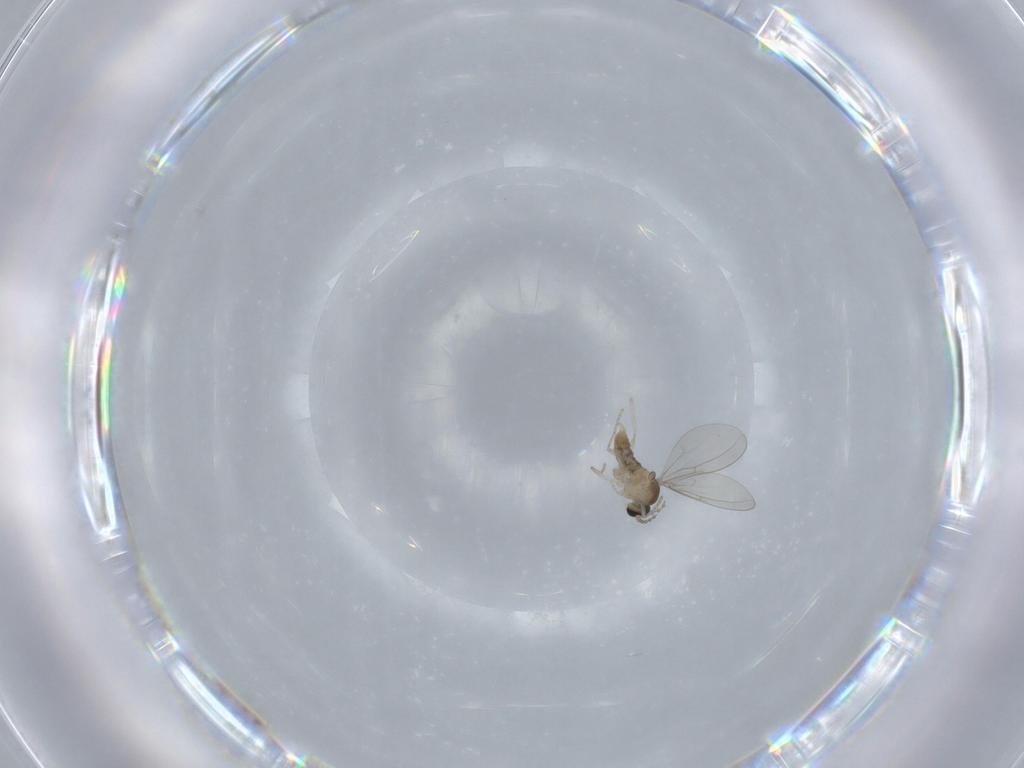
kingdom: Animalia
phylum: Arthropoda
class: Insecta
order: Diptera
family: Cecidomyiidae
